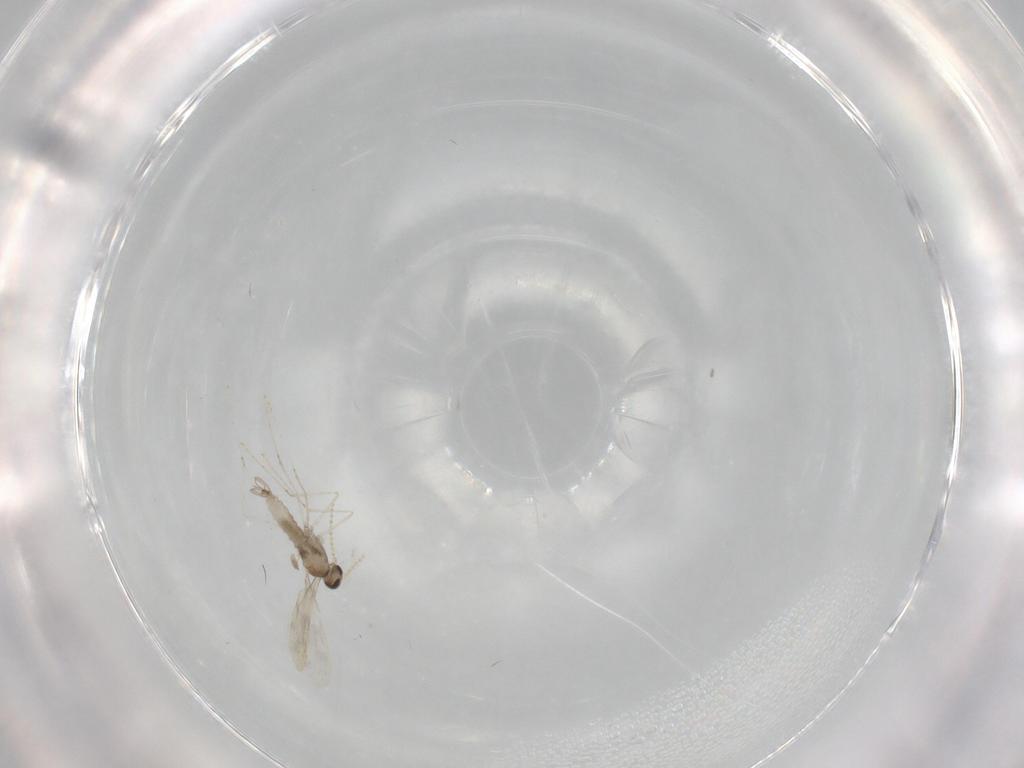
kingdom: Animalia
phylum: Arthropoda
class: Insecta
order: Diptera
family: Cecidomyiidae
